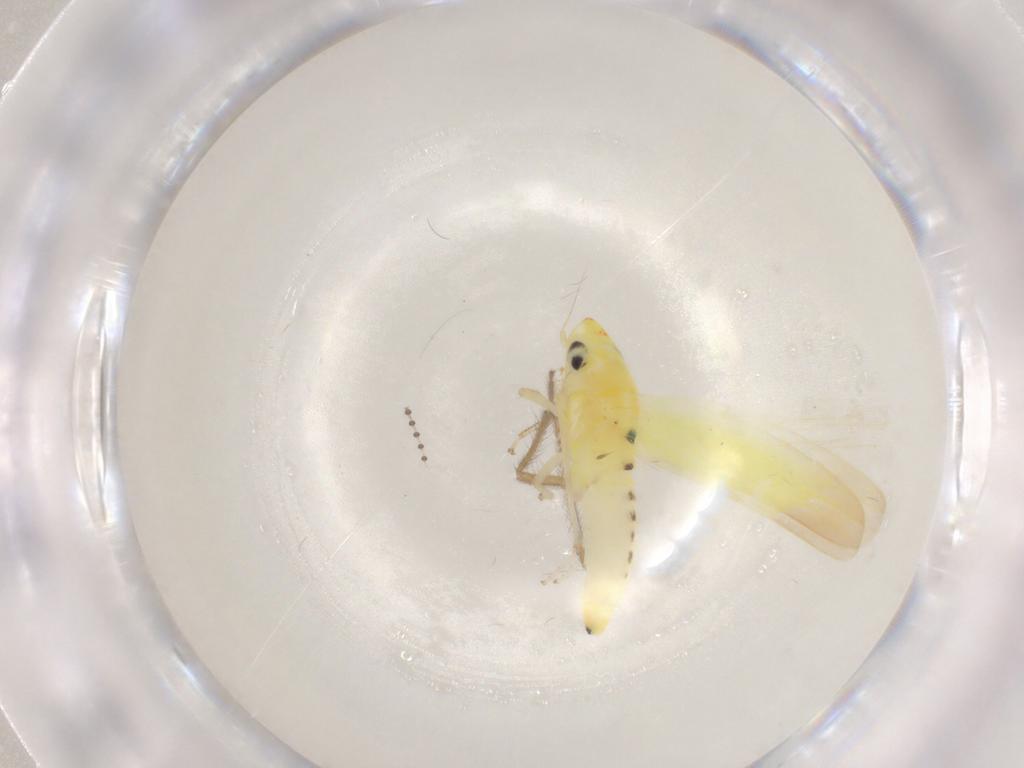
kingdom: Animalia
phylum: Arthropoda
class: Insecta
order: Hemiptera
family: Cicadellidae
